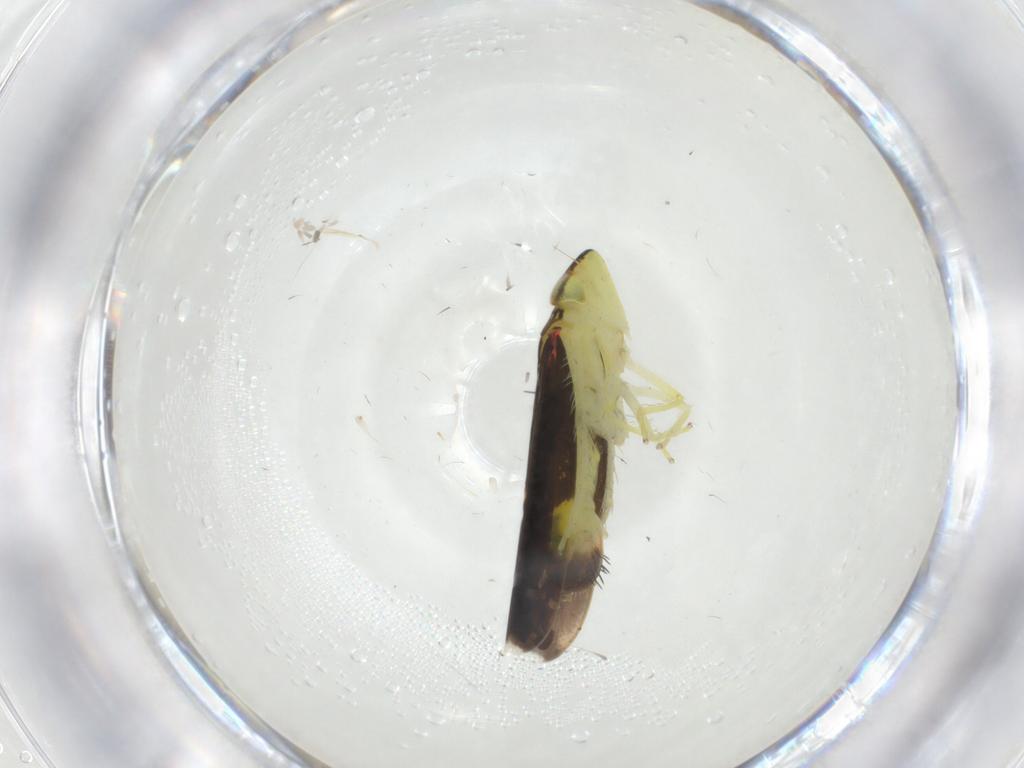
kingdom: Animalia
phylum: Arthropoda
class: Insecta
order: Hemiptera
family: Cicadellidae
